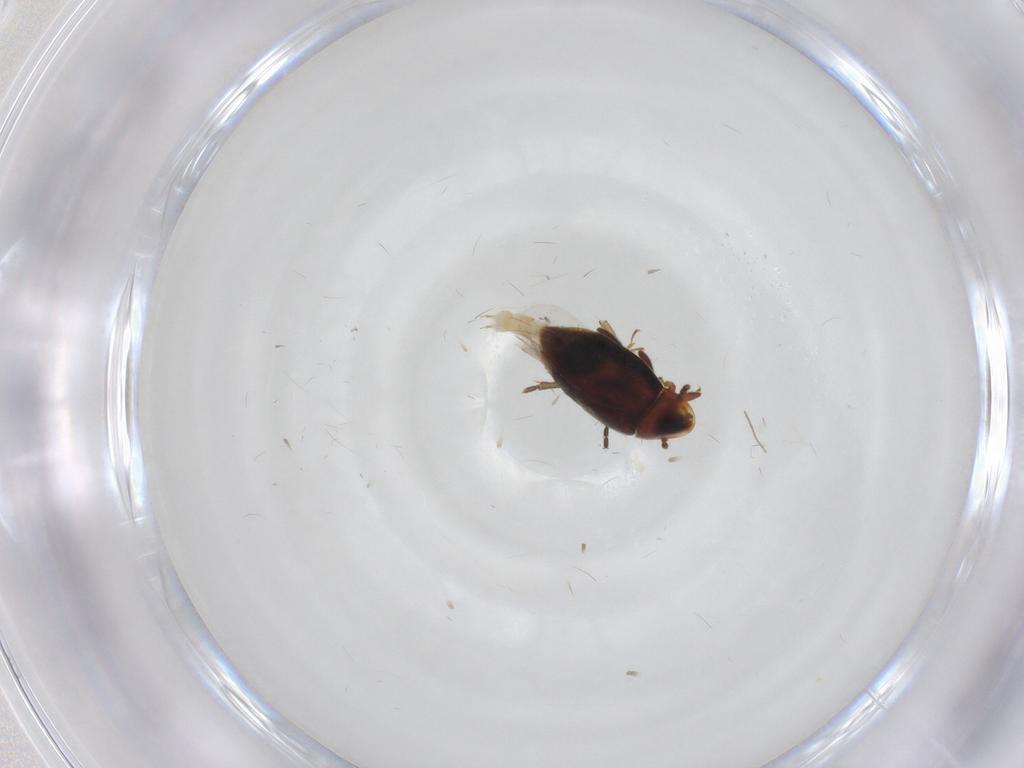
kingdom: Animalia
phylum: Arthropoda
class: Insecta
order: Coleoptera
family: Corylophidae
